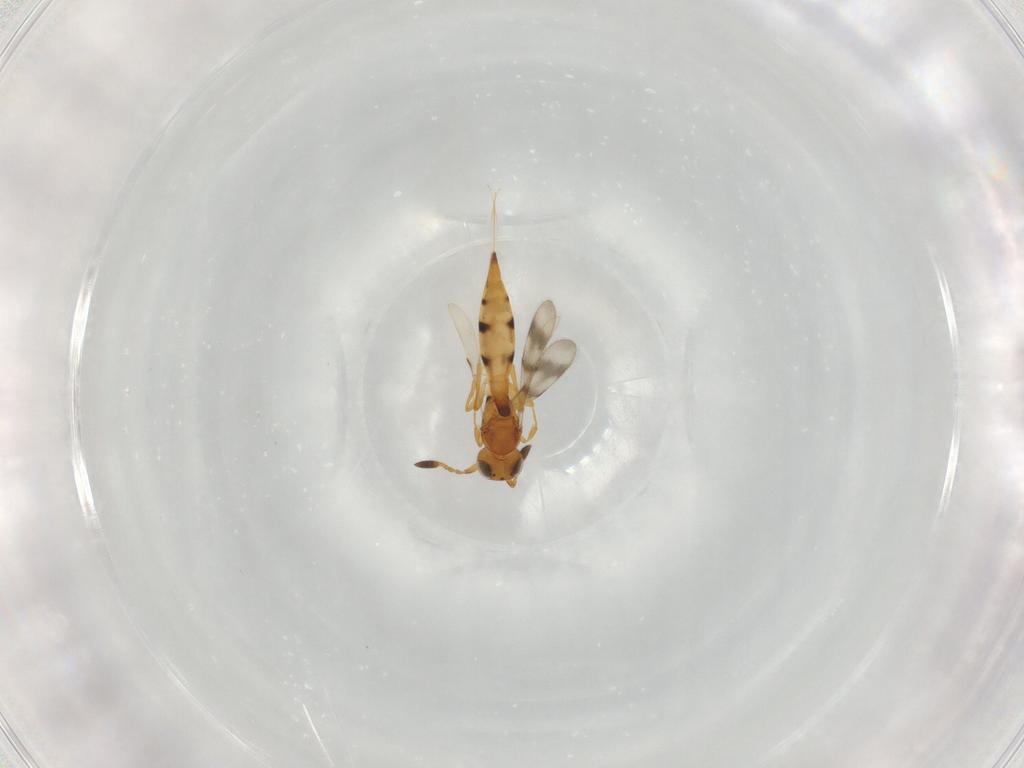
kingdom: Animalia
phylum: Arthropoda
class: Insecta
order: Hymenoptera
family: Scelionidae
